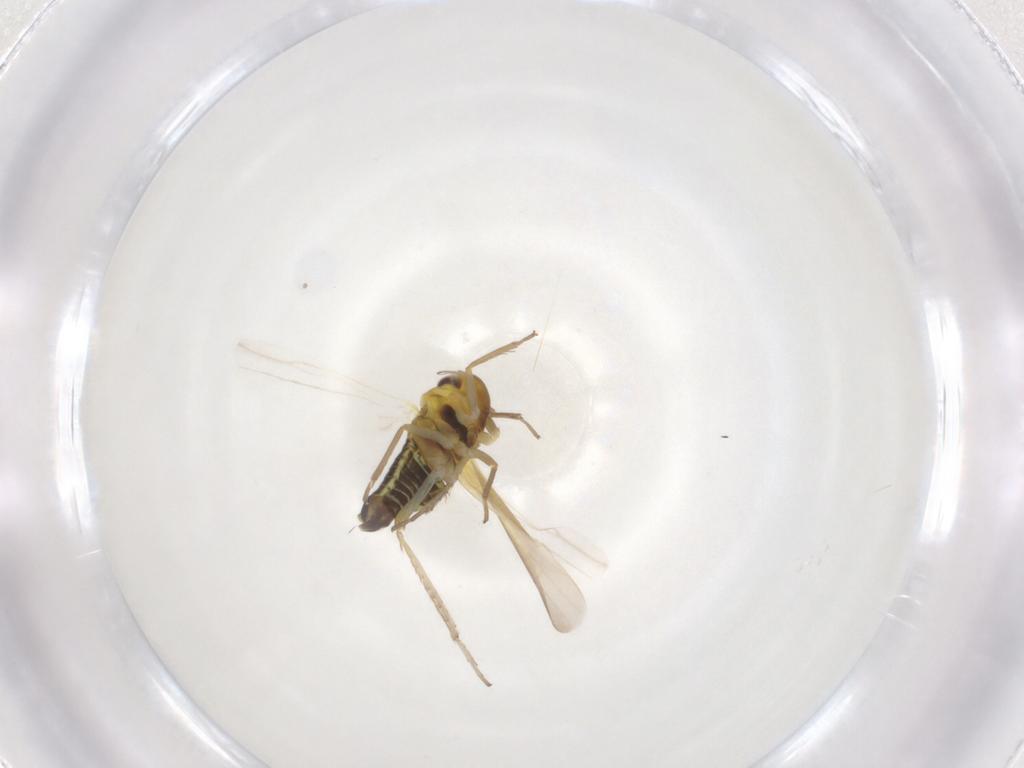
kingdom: Animalia
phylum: Arthropoda
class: Insecta
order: Hemiptera
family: Cicadellidae
